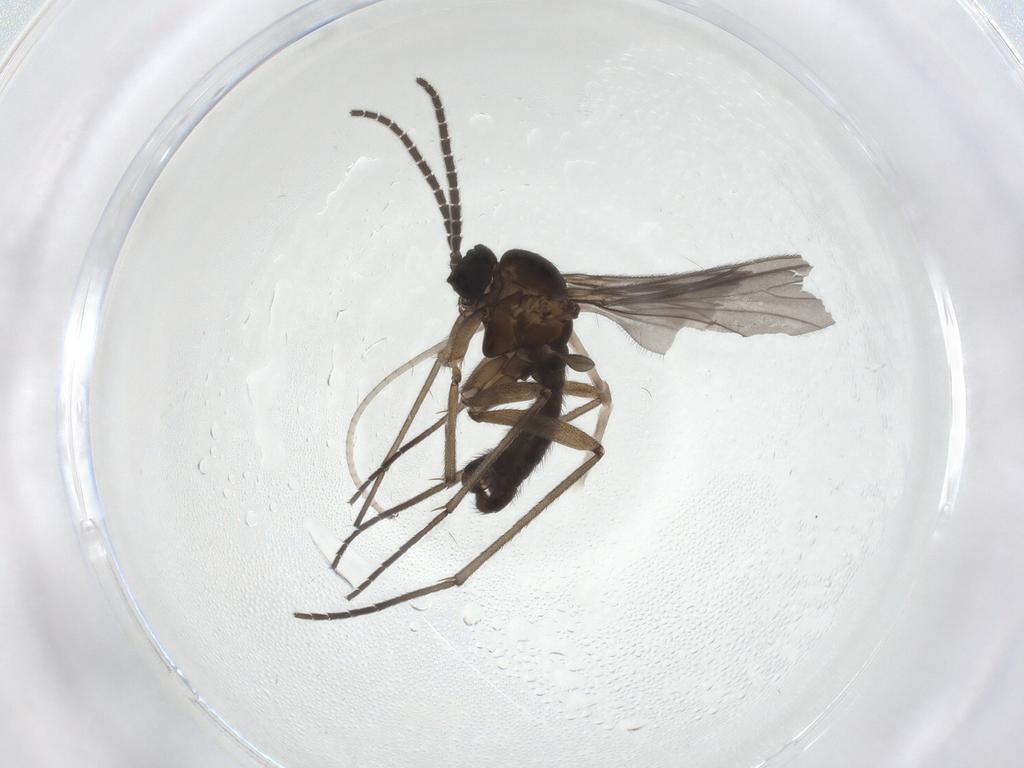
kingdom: Animalia
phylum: Arthropoda
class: Insecta
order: Diptera
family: Sciaridae
